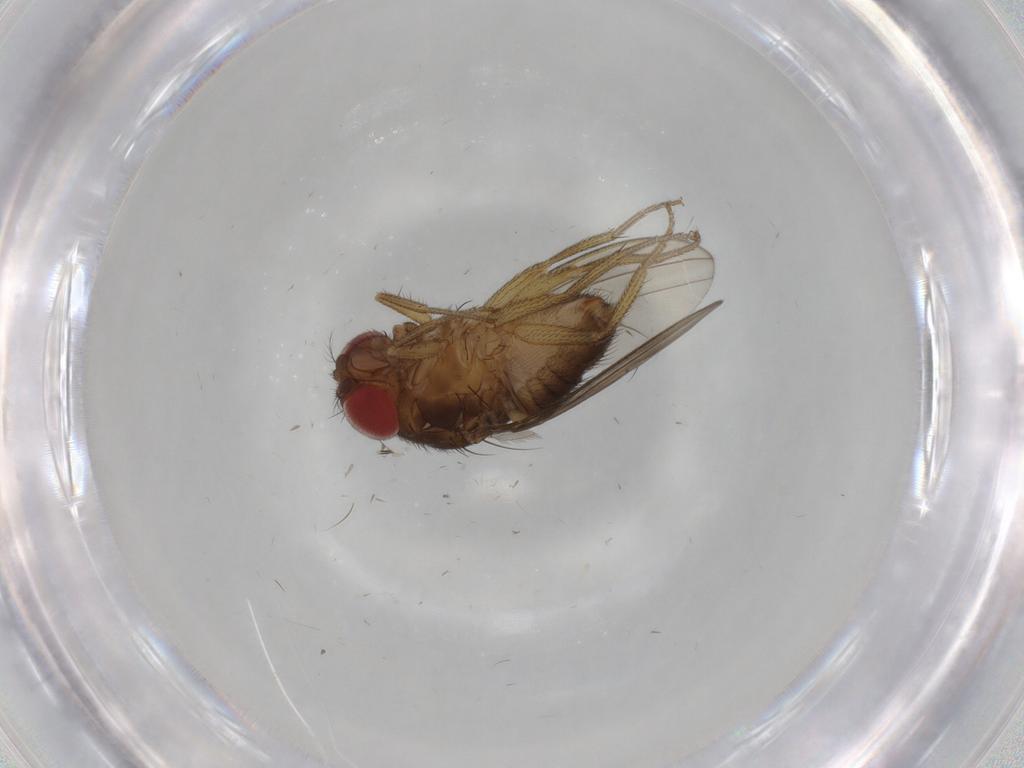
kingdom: Animalia
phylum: Arthropoda
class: Insecta
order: Diptera
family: Drosophilidae
